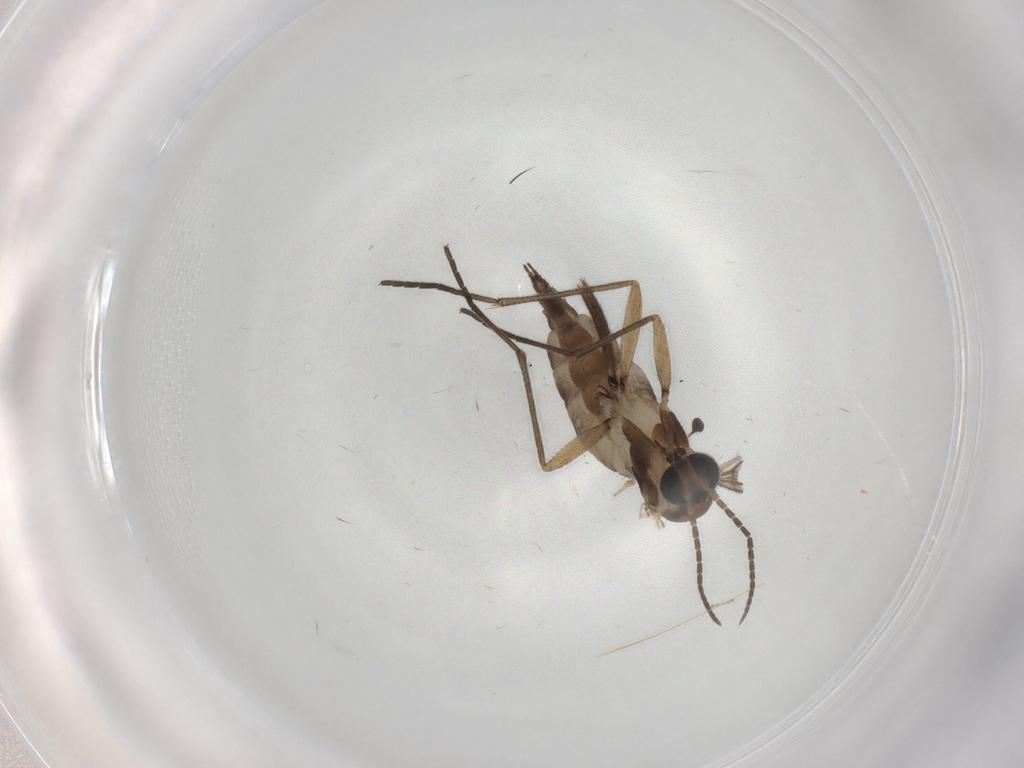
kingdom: Animalia
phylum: Arthropoda
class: Insecta
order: Diptera
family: Sciaridae
